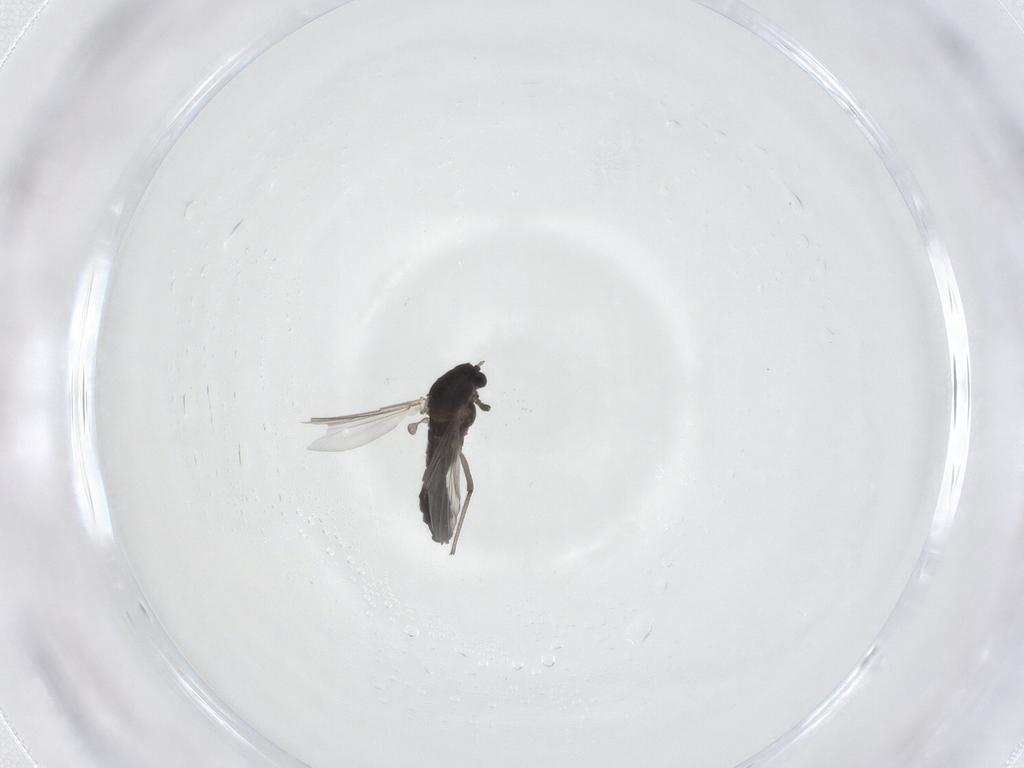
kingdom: Animalia
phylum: Arthropoda
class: Insecta
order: Diptera
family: Chironomidae
